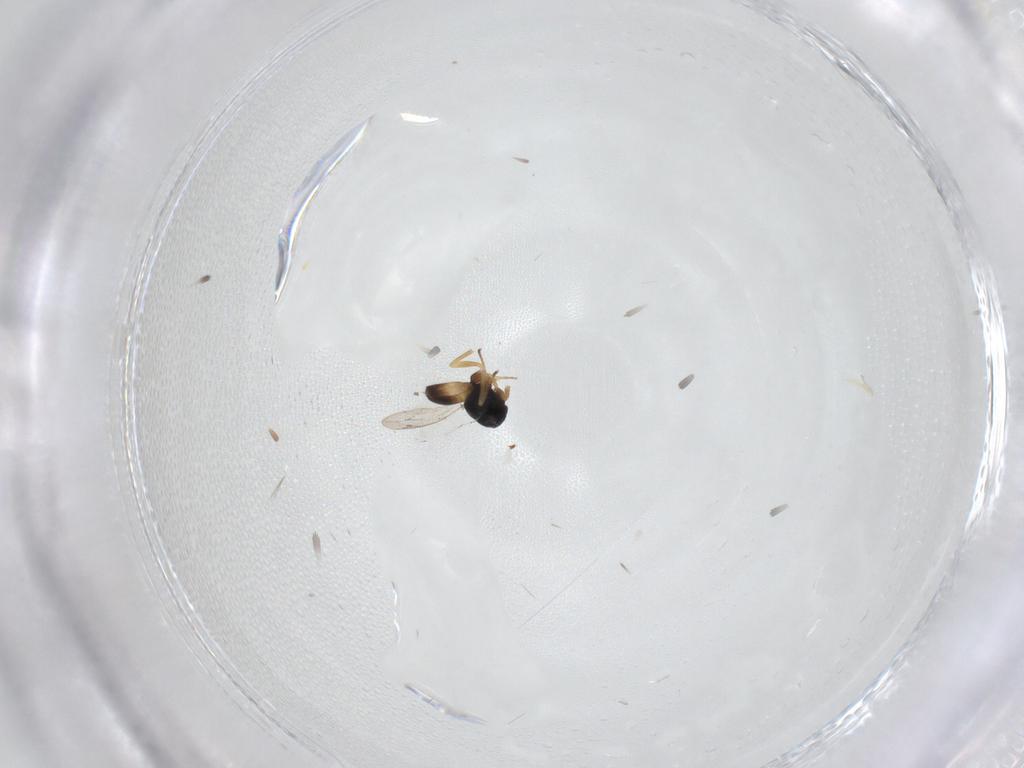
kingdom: Animalia
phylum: Arthropoda
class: Insecta
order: Hymenoptera
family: Pteromalidae
